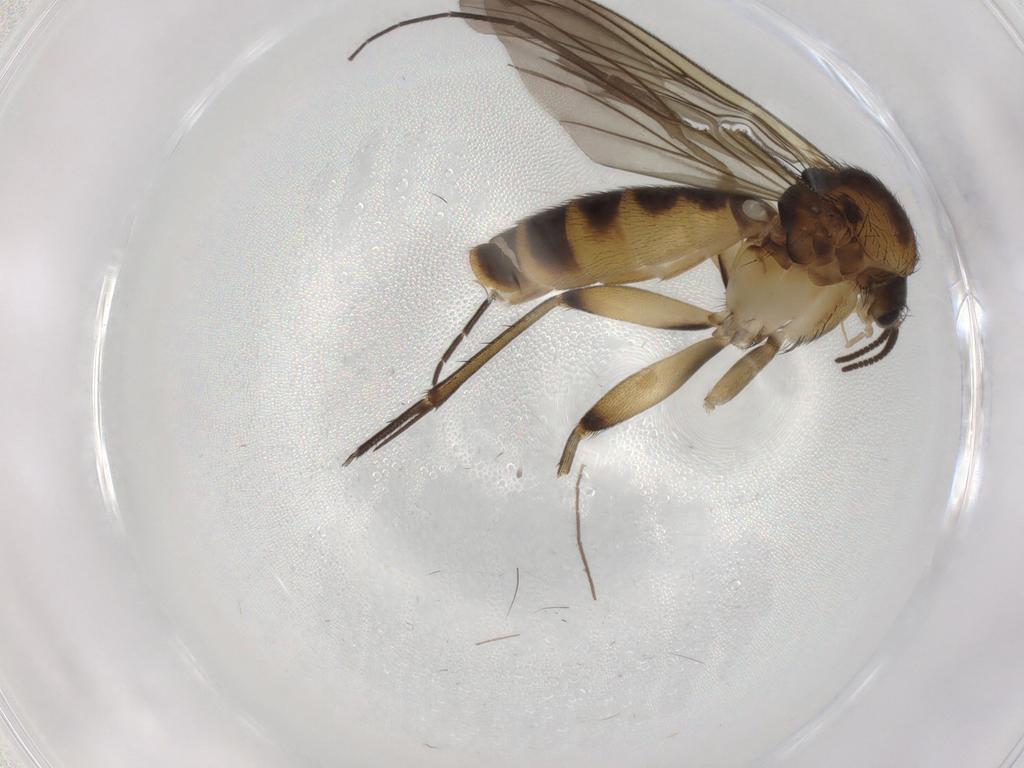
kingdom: Animalia
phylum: Arthropoda
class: Insecta
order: Diptera
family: Mycetophilidae
